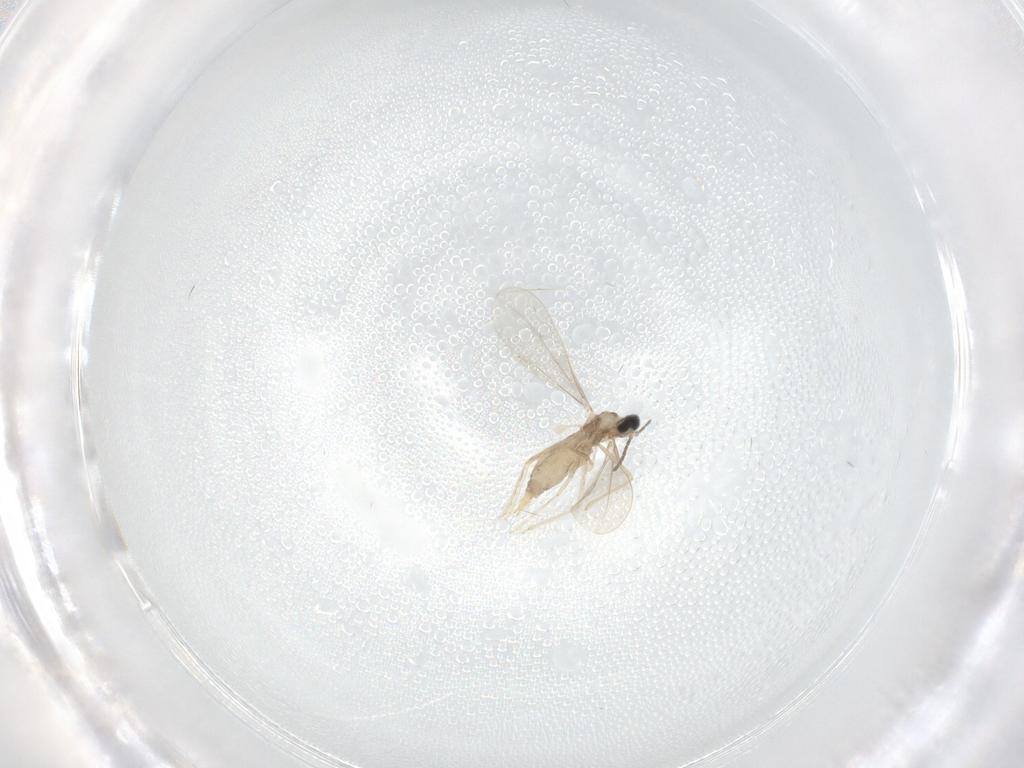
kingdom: Animalia
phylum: Arthropoda
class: Insecta
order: Diptera
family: Cecidomyiidae
